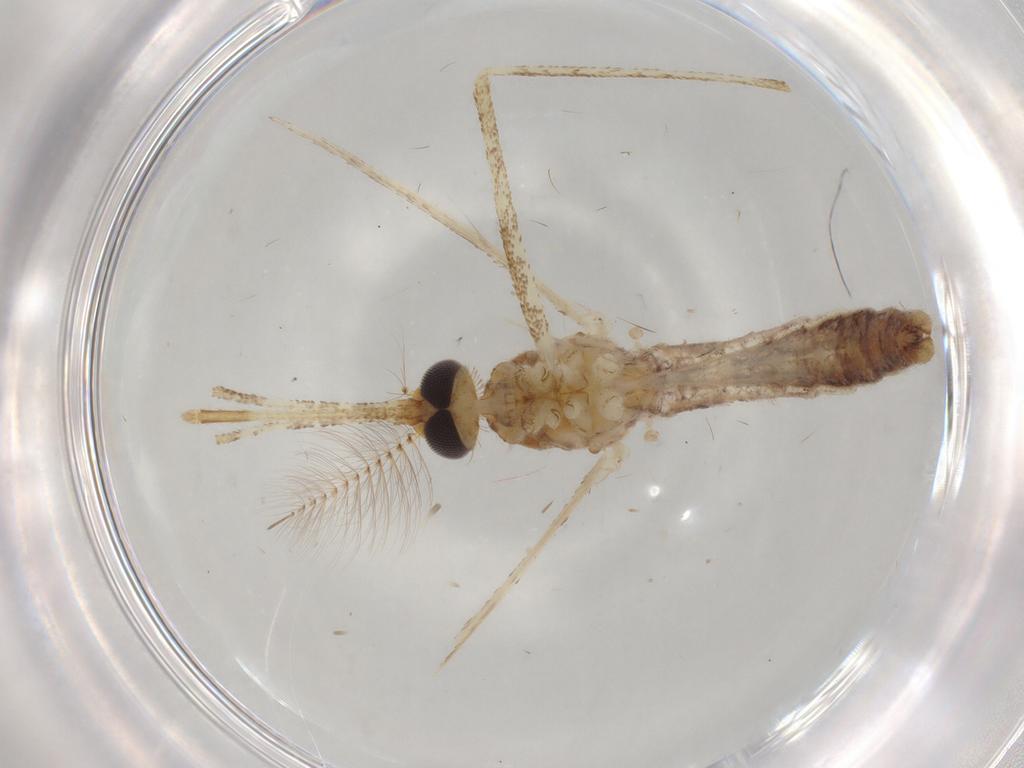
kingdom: Animalia
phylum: Arthropoda
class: Insecta
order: Diptera
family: Cecidomyiidae
